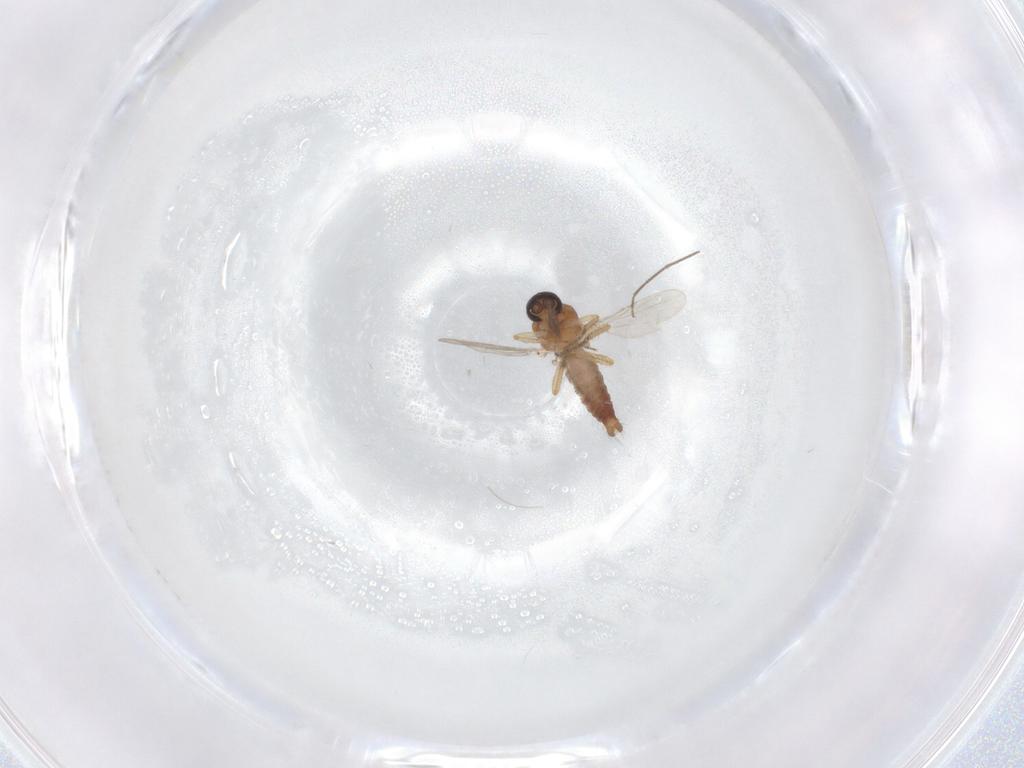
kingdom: Animalia
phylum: Arthropoda
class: Insecta
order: Diptera
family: Ceratopogonidae
